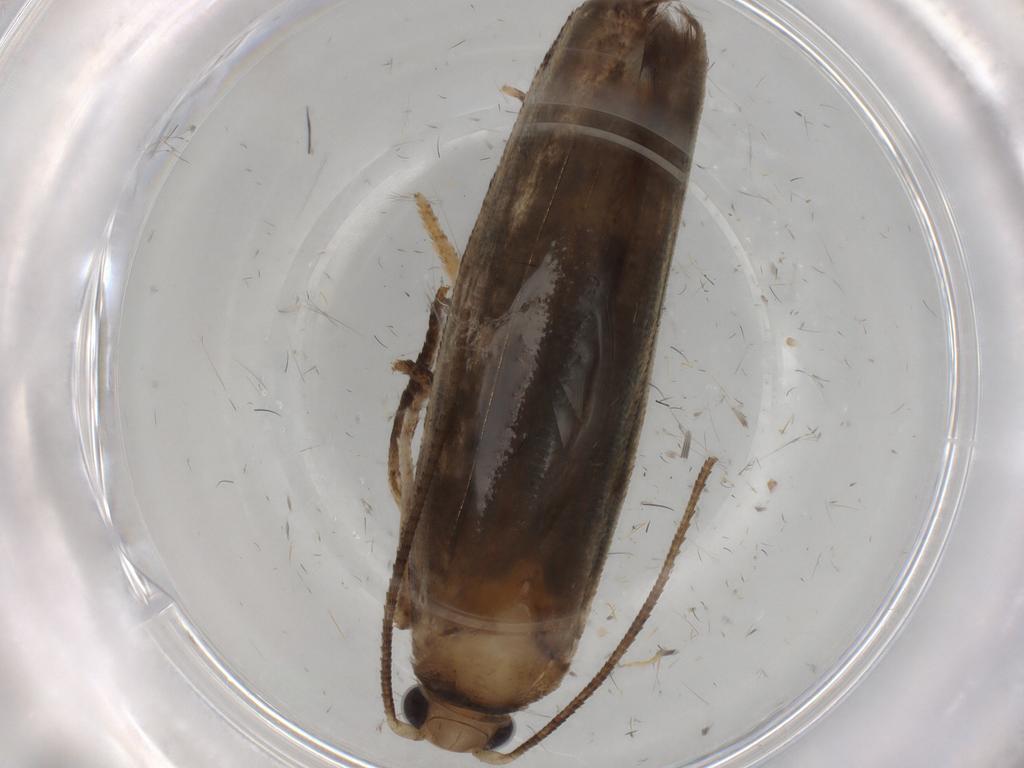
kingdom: Animalia
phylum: Arthropoda
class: Insecta
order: Lepidoptera
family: Yponomeutidae
